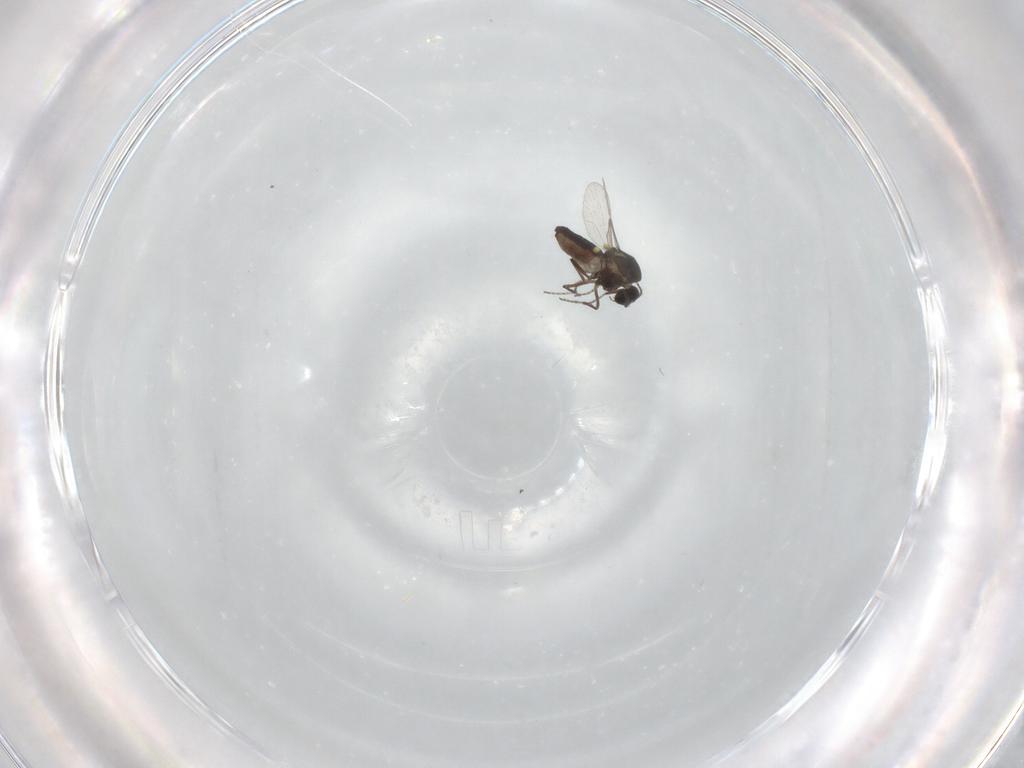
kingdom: Animalia
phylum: Arthropoda
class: Insecta
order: Diptera
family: Ceratopogonidae
